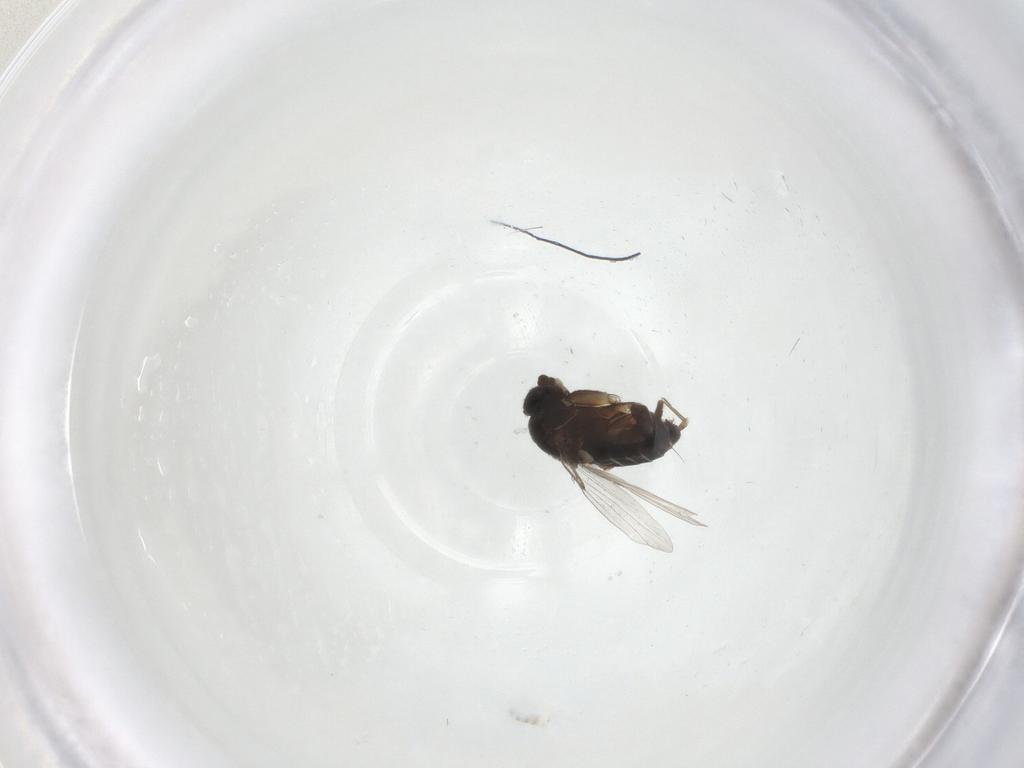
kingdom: Animalia
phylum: Arthropoda
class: Insecta
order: Diptera
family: Phoridae
